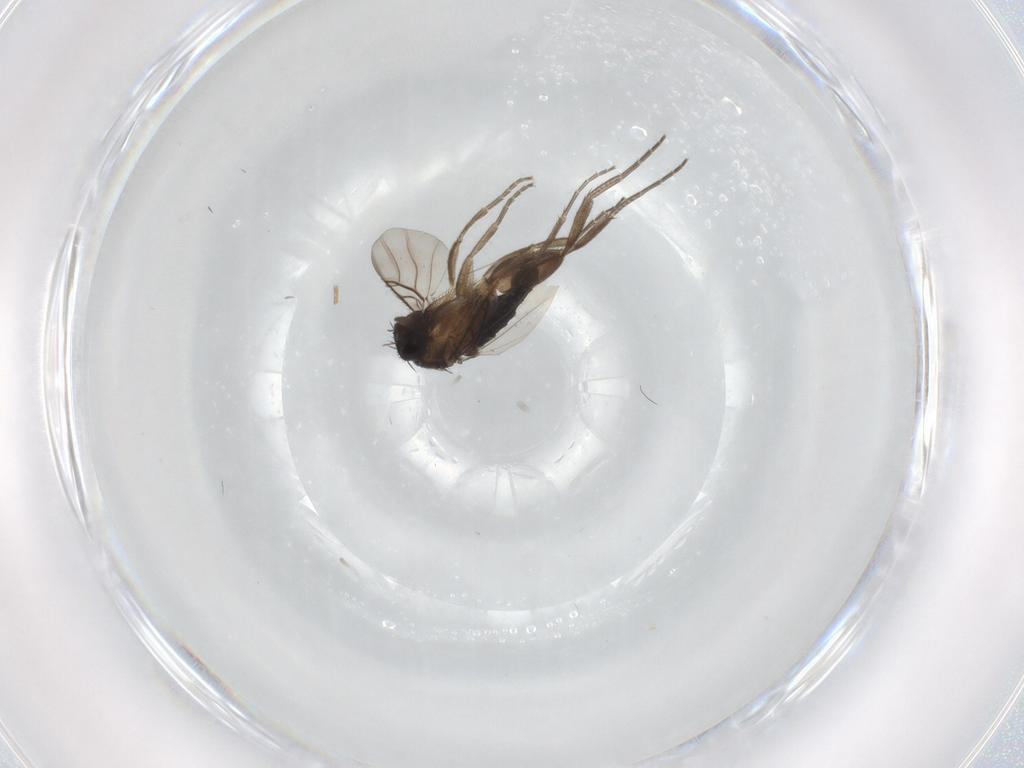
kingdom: Animalia
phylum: Arthropoda
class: Insecta
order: Diptera
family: Phoridae
